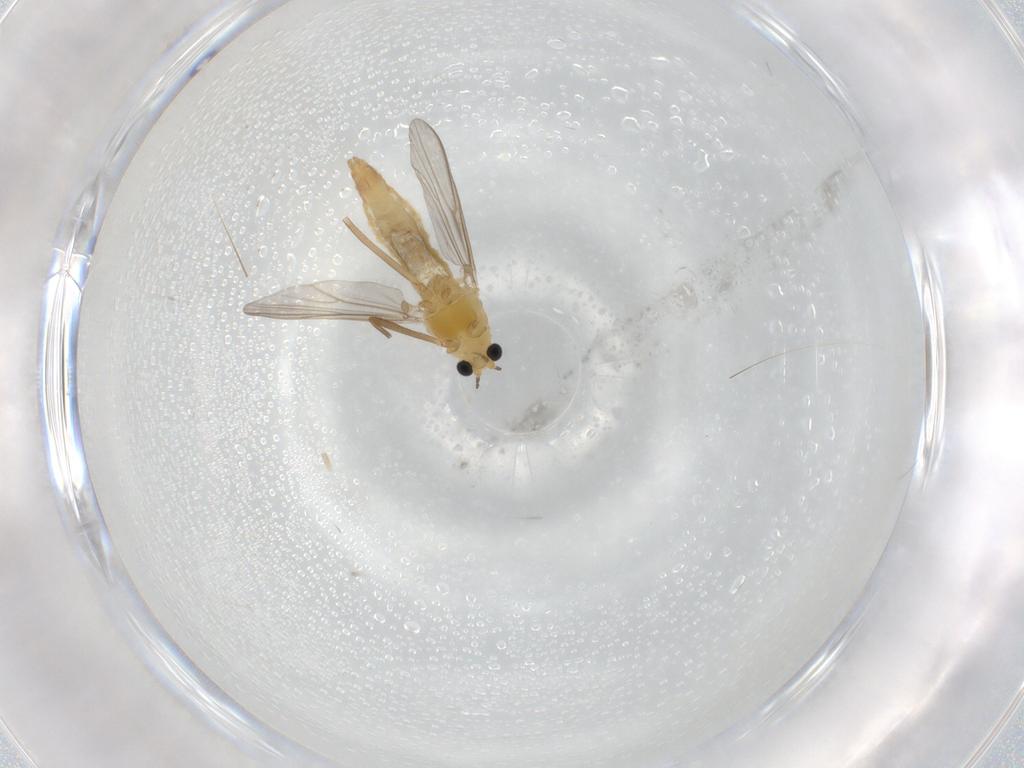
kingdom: Animalia
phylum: Arthropoda
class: Insecta
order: Diptera
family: Chironomidae
